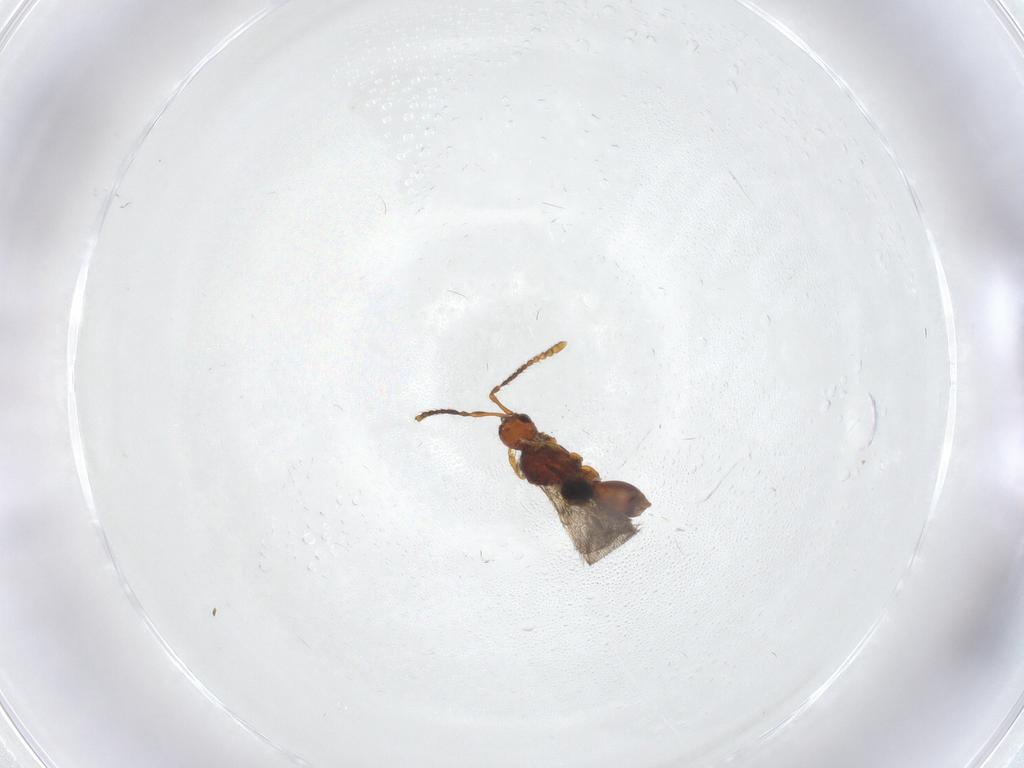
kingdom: Animalia
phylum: Arthropoda
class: Insecta
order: Hymenoptera
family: Diapriidae
